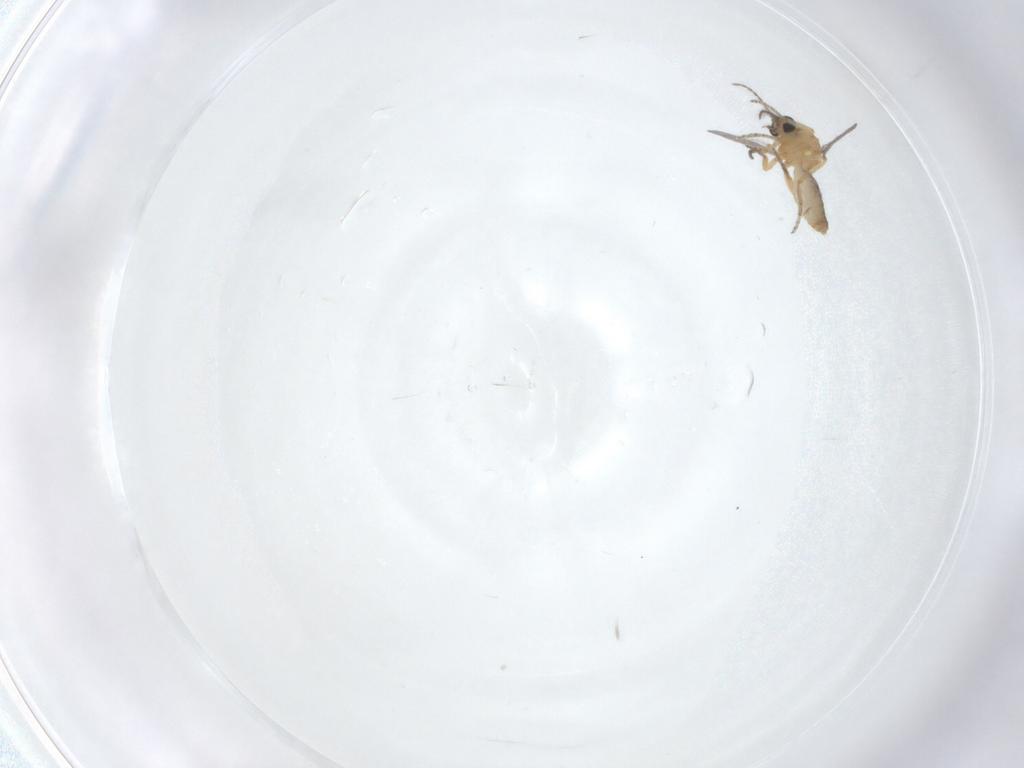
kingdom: Animalia
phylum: Arthropoda
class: Insecta
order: Diptera
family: Ceratopogonidae
